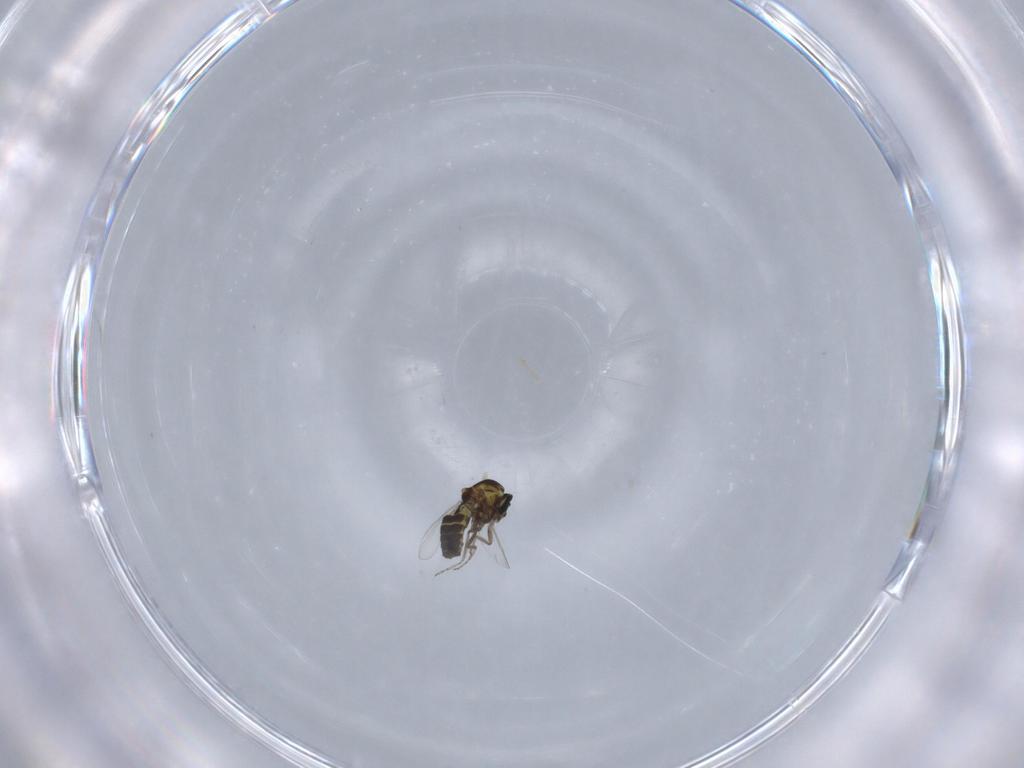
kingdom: Animalia
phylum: Arthropoda
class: Insecta
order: Diptera
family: Ceratopogonidae
